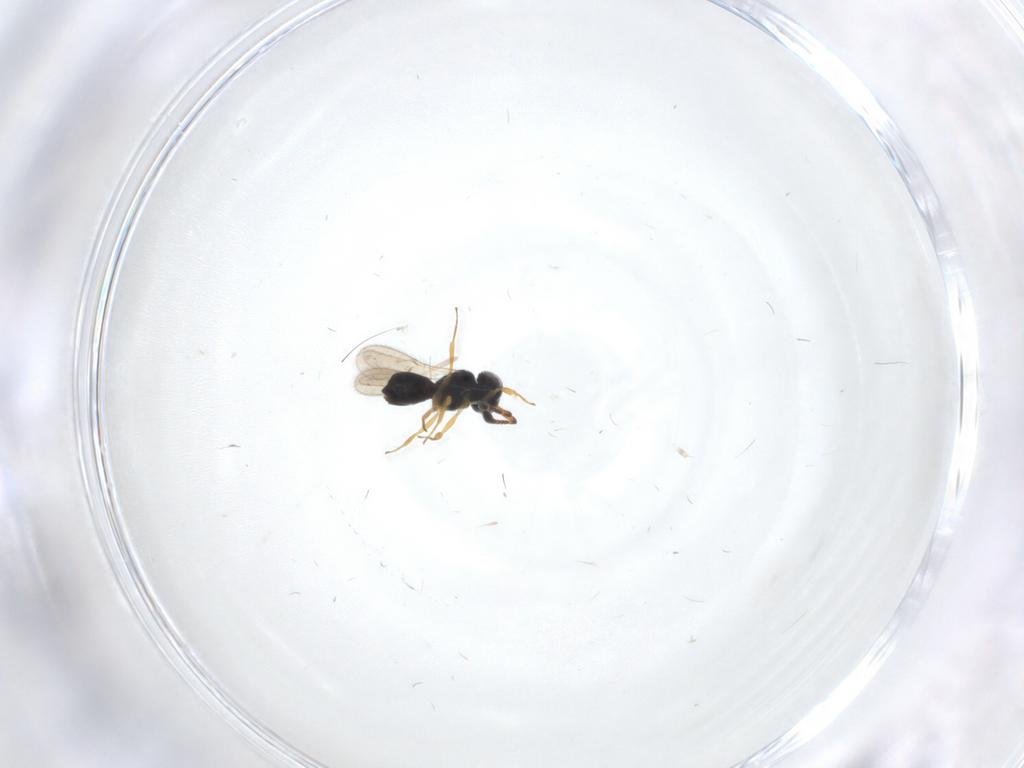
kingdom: Animalia
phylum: Arthropoda
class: Insecta
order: Hymenoptera
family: Scelionidae
